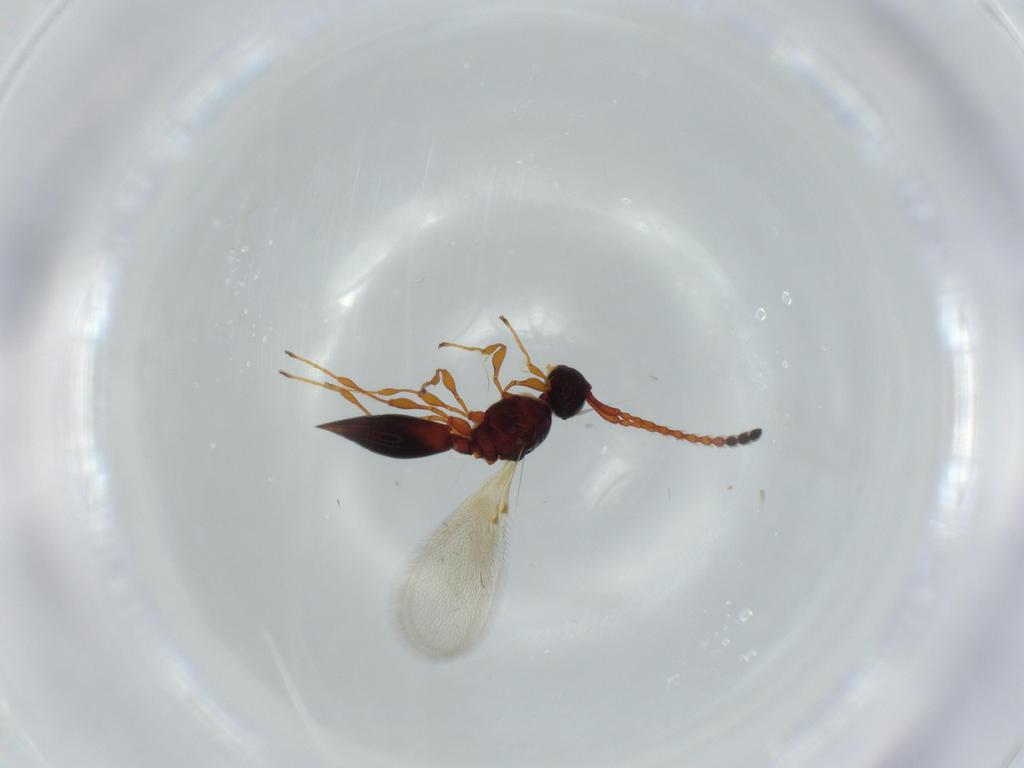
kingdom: Animalia
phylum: Arthropoda
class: Insecta
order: Hymenoptera
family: Diapriidae
